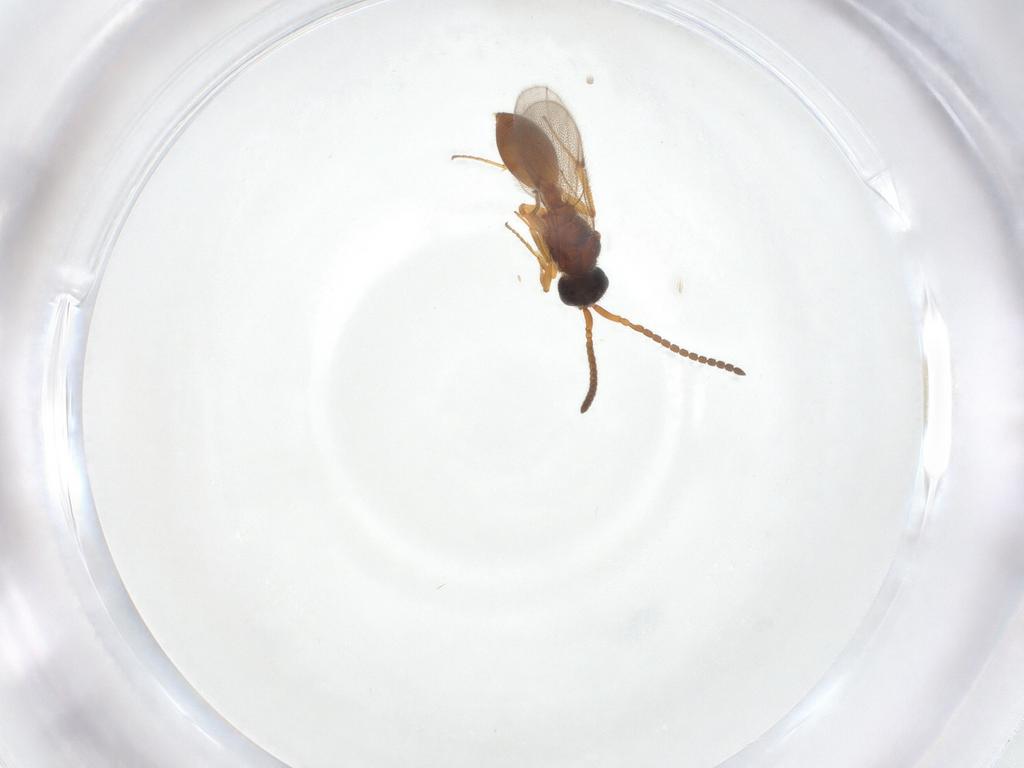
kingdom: Animalia
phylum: Arthropoda
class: Insecta
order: Hymenoptera
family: Diapriidae
